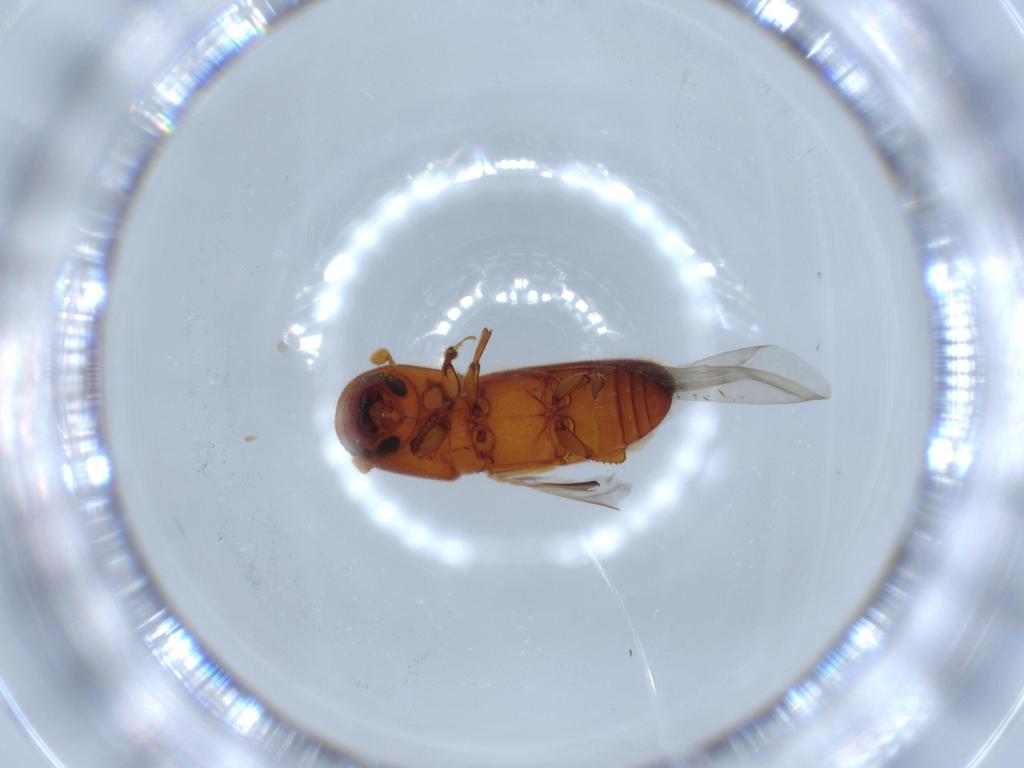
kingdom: Animalia
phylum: Arthropoda
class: Insecta
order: Coleoptera
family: Curculionidae
